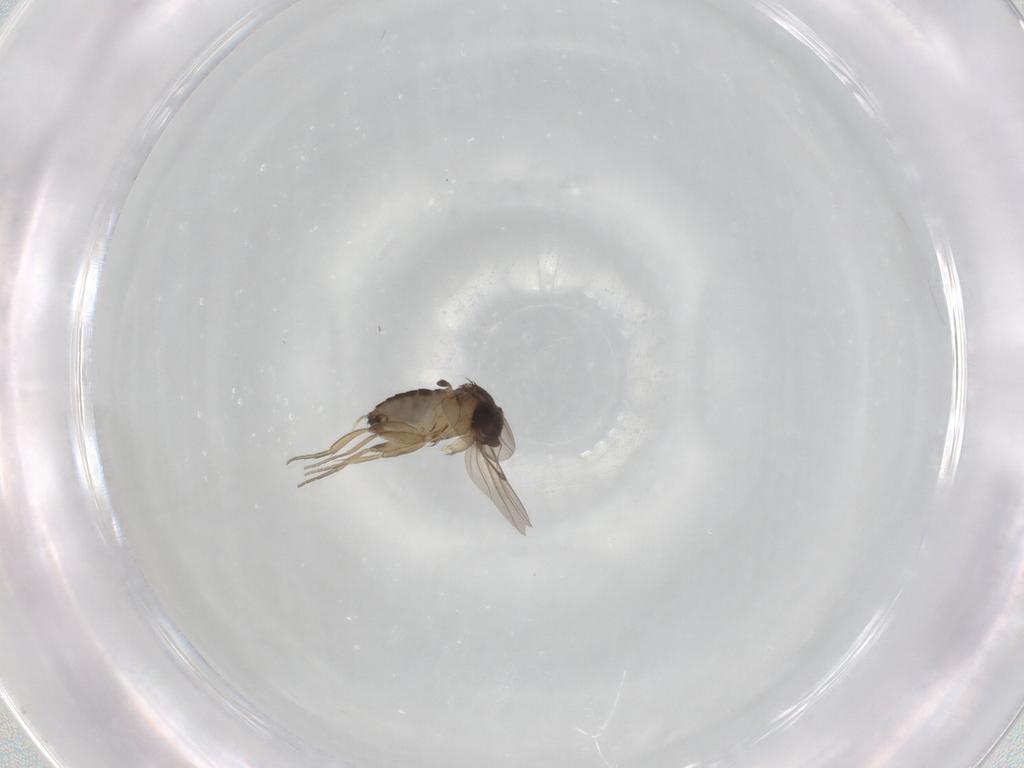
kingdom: Animalia
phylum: Arthropoda
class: Insecta
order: Diptera
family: Phoridae
